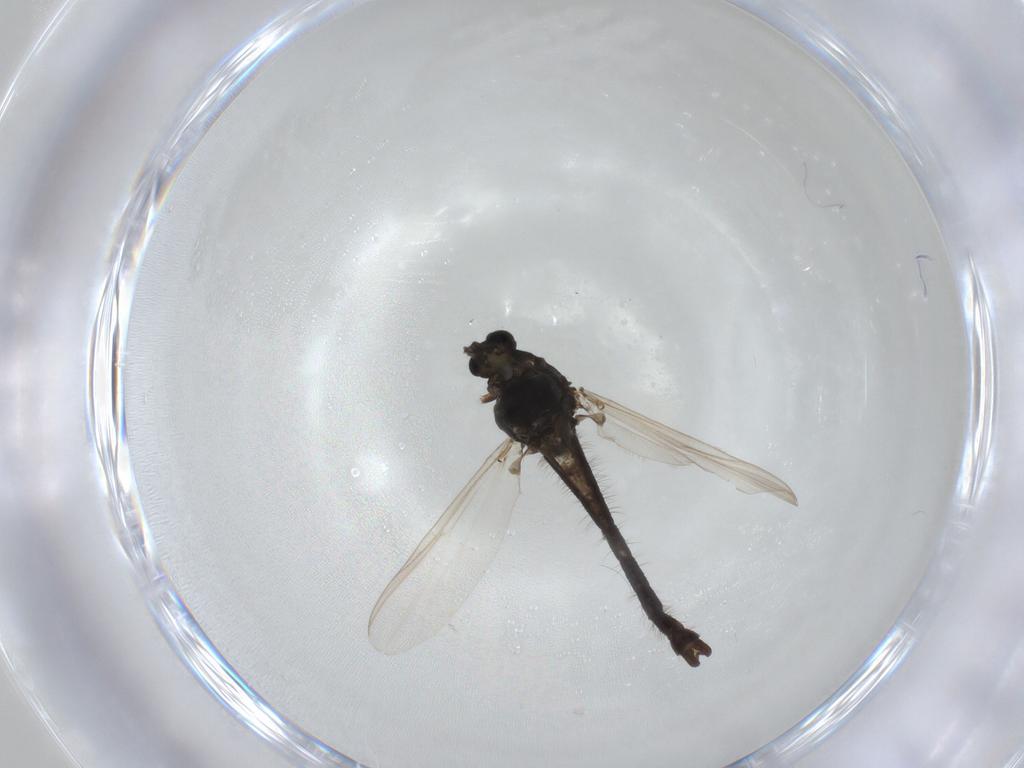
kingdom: Animalia
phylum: Arthropoda
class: Insecta
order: Diptera
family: Chironomidae
